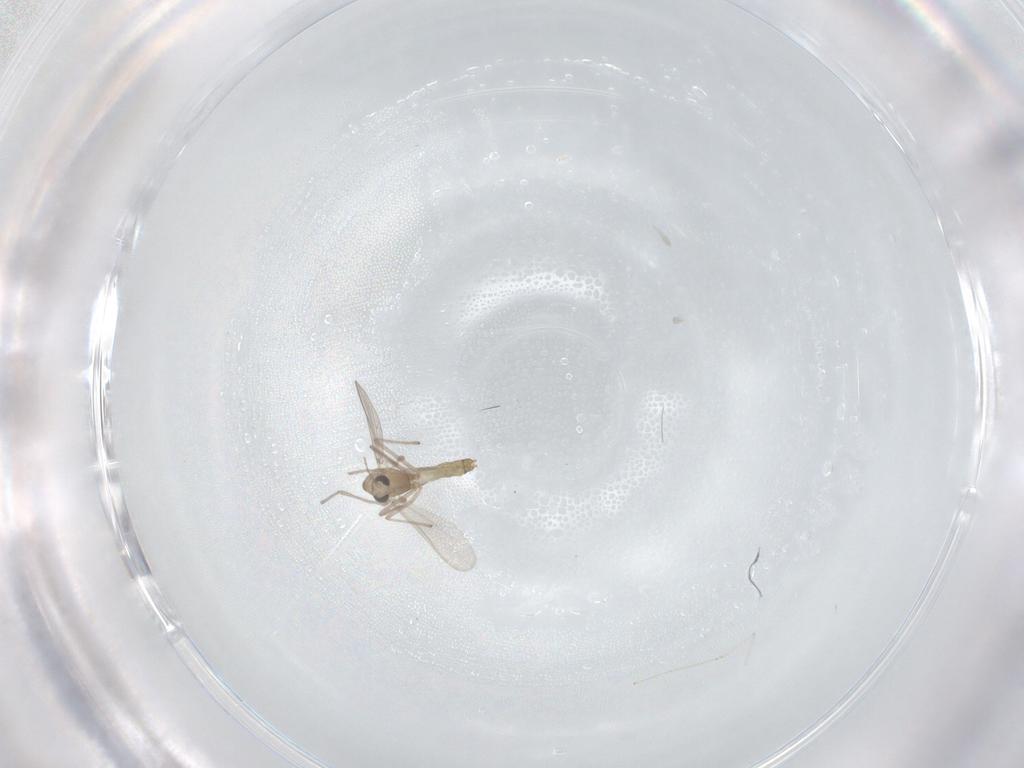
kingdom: Animalia
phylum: Arthropoda
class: Insecta
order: Diptera
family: Chironomidae
